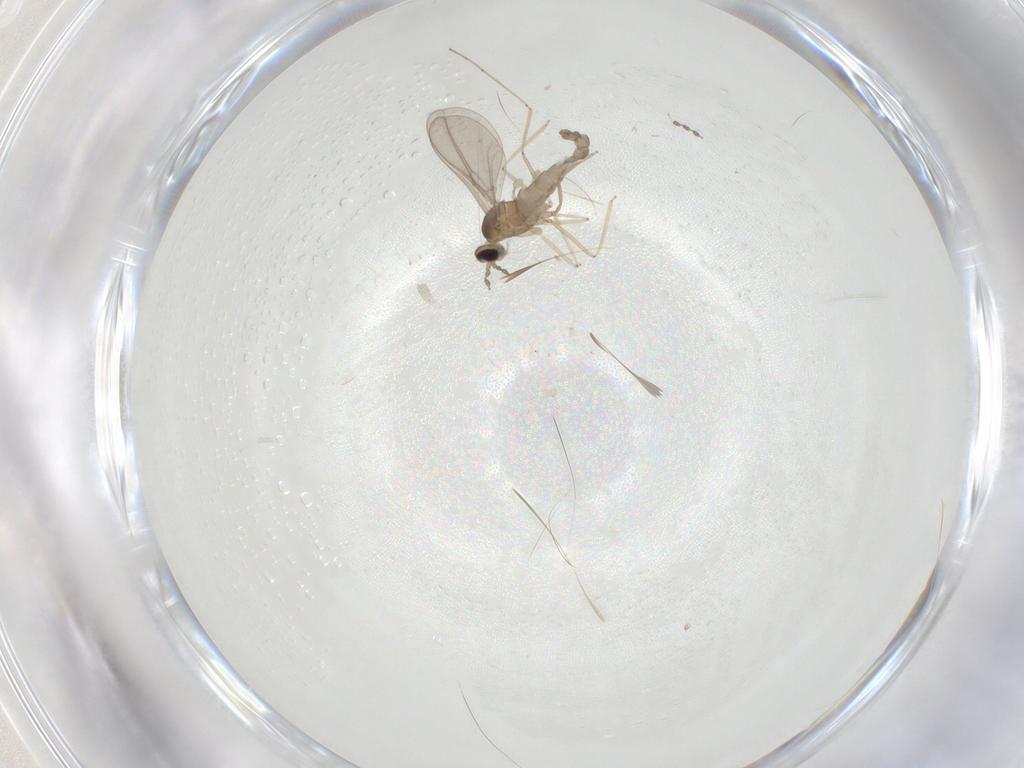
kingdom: Animalia
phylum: Arthropoda
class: Insecta
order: Diptera
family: Cecidomyiidae
